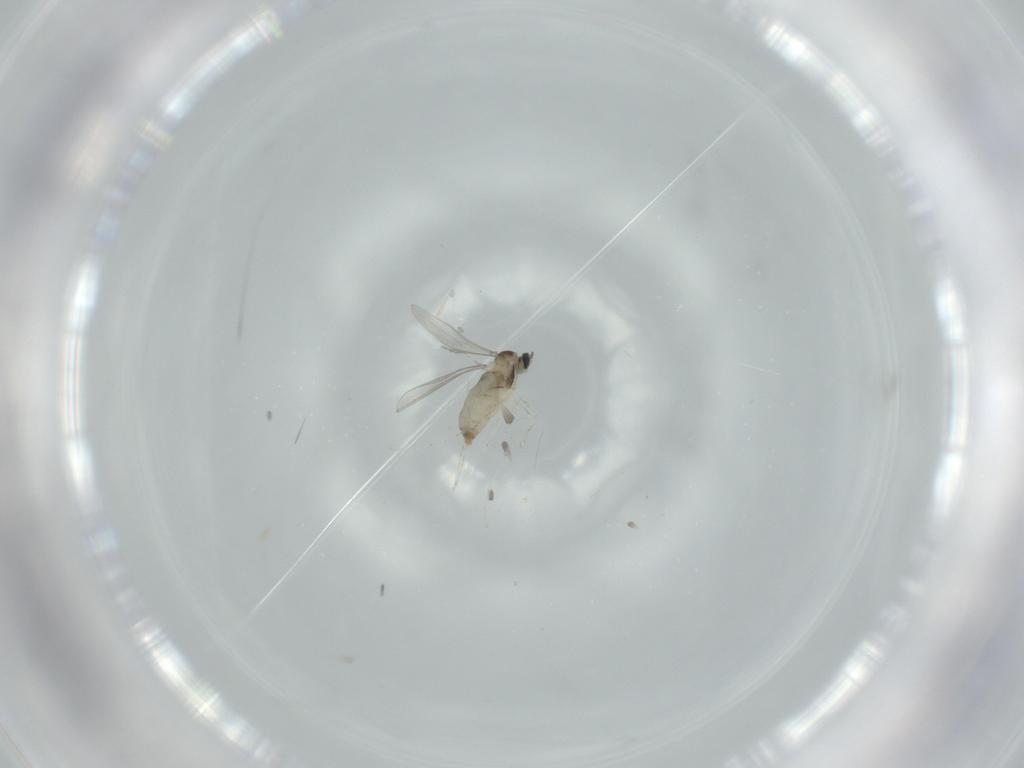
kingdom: Animalia
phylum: Arthropoda
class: Insecta
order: Diptera
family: Cecidomyiidae
